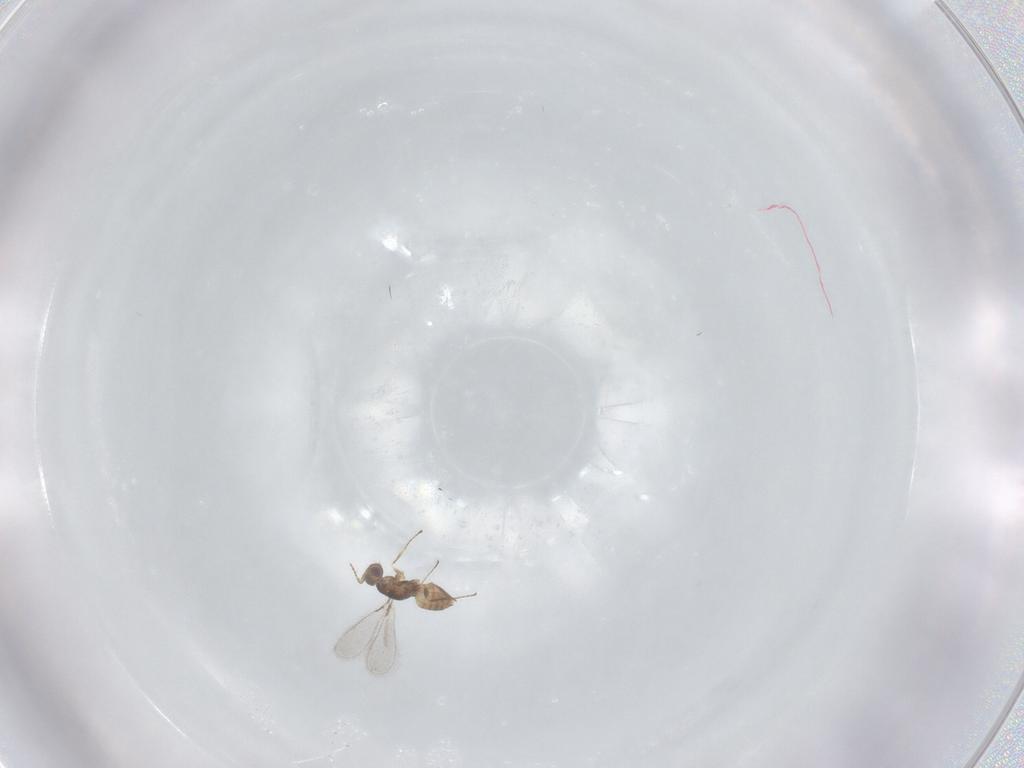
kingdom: Animalia
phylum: Arthropoda
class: Insecta
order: Hymenoptera
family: Mymaridae
